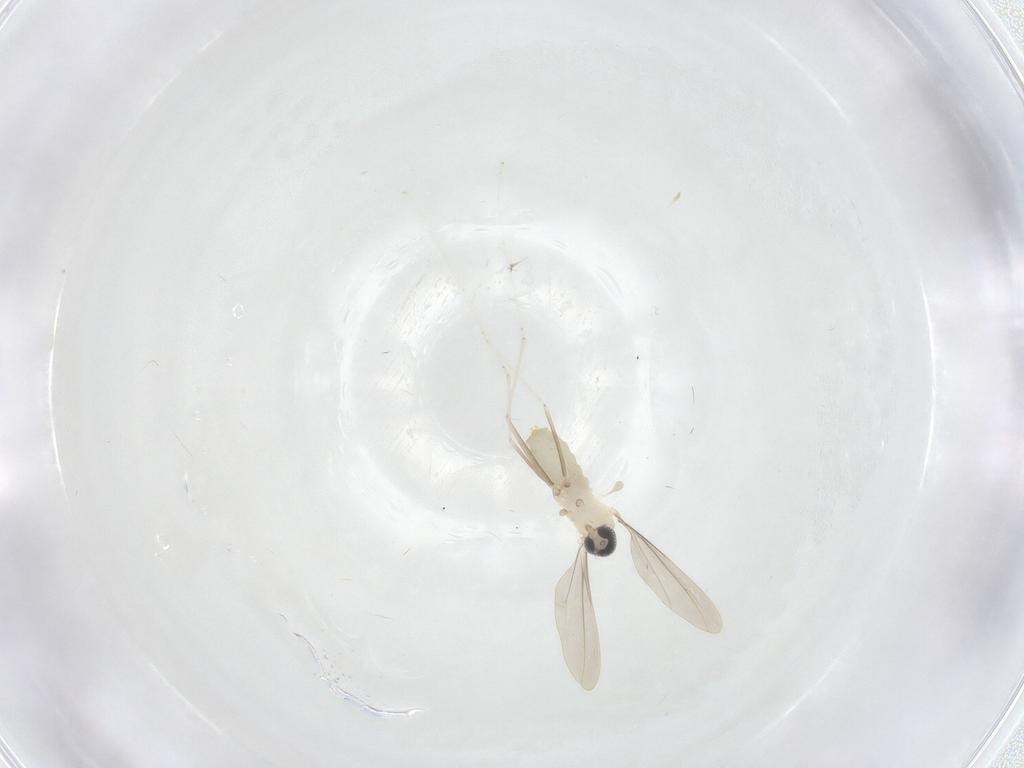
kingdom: Animalia
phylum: Arthropoda
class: Insecta
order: Diptera
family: Cecidomyiidae
